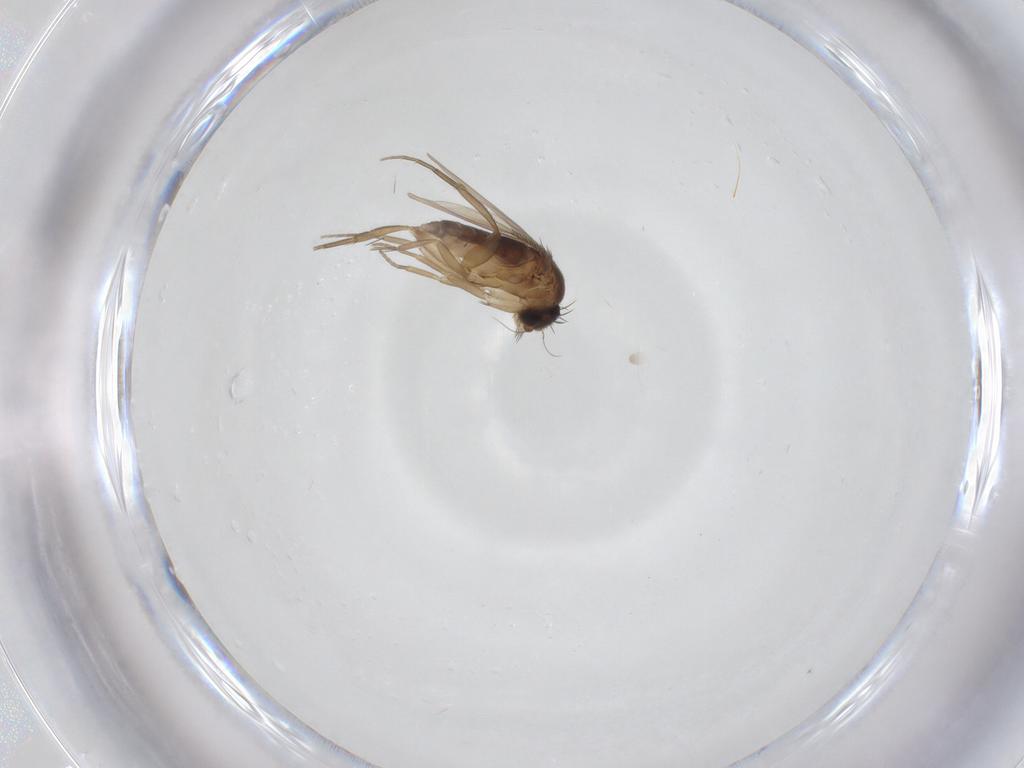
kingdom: Animalia
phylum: Arthropoda
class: Insecta
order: Diptera
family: Phoridae
